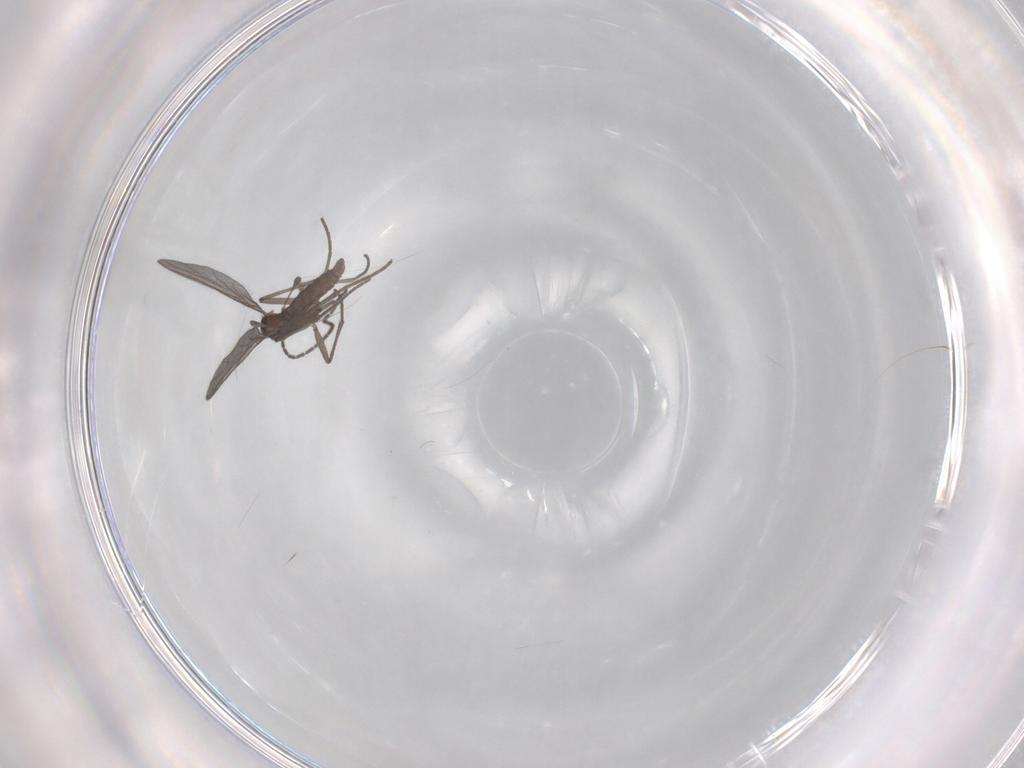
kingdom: Animalia
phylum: Arthropoda
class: Insecta
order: Diptera
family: Sciaridae
